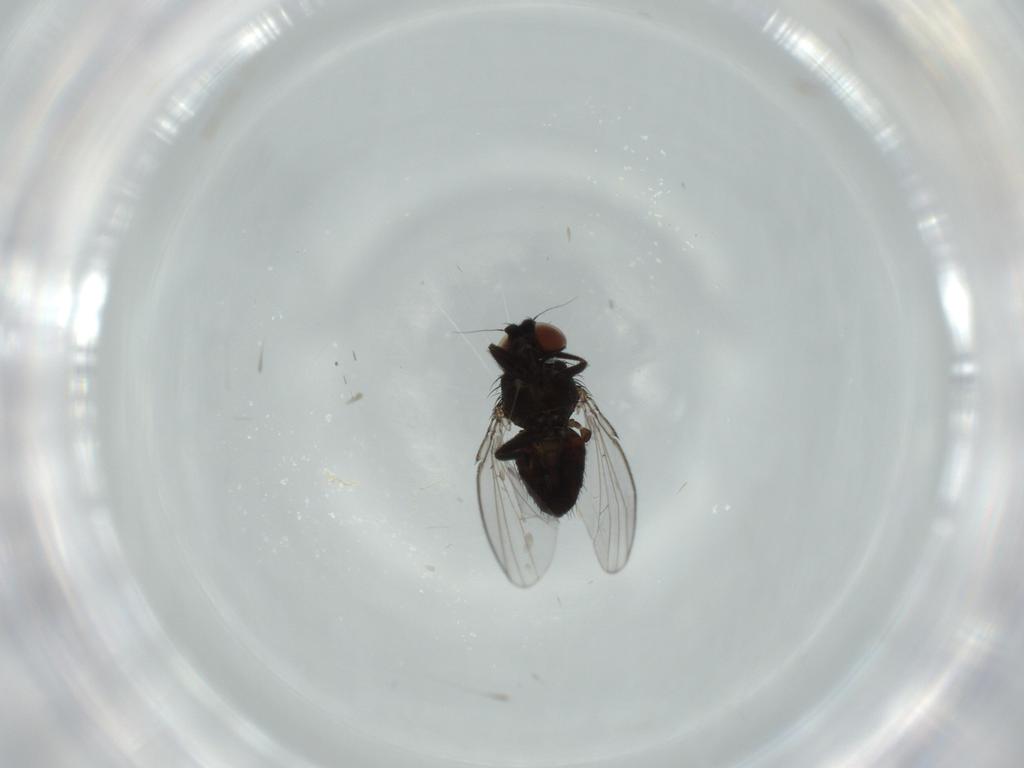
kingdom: Animalia
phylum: Arthropoda
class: Insecta
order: Diptera
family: Milichiidae
